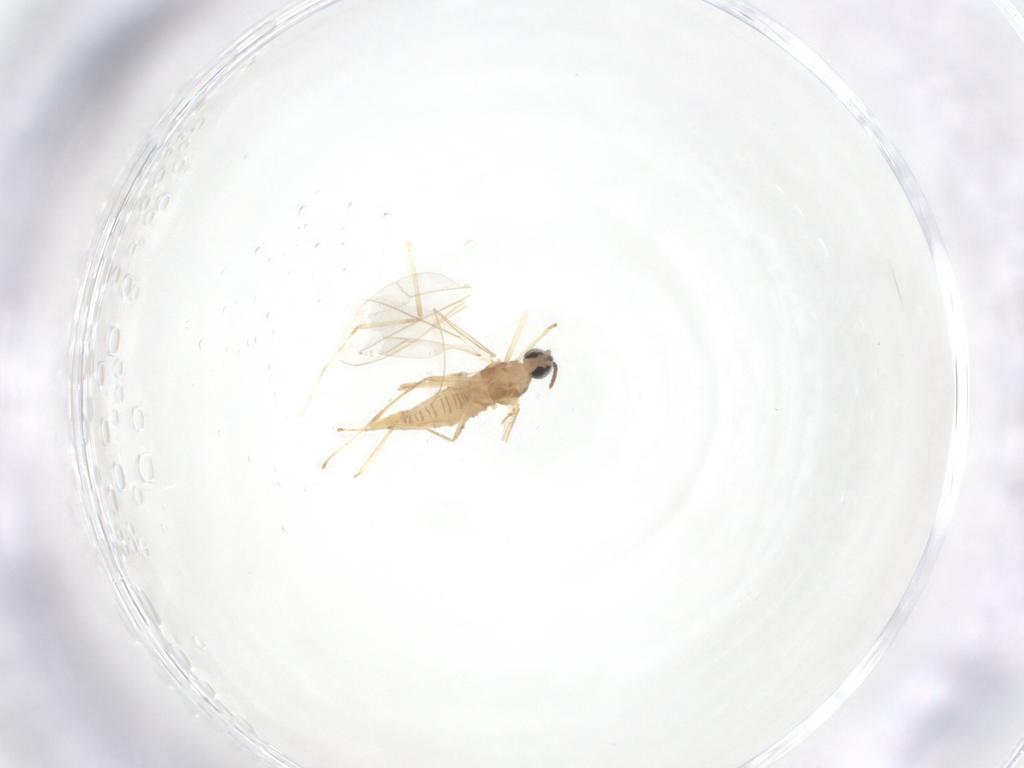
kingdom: Animalia
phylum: Arthropoda
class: Insecta
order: Diptera
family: Cecidomyiidae
